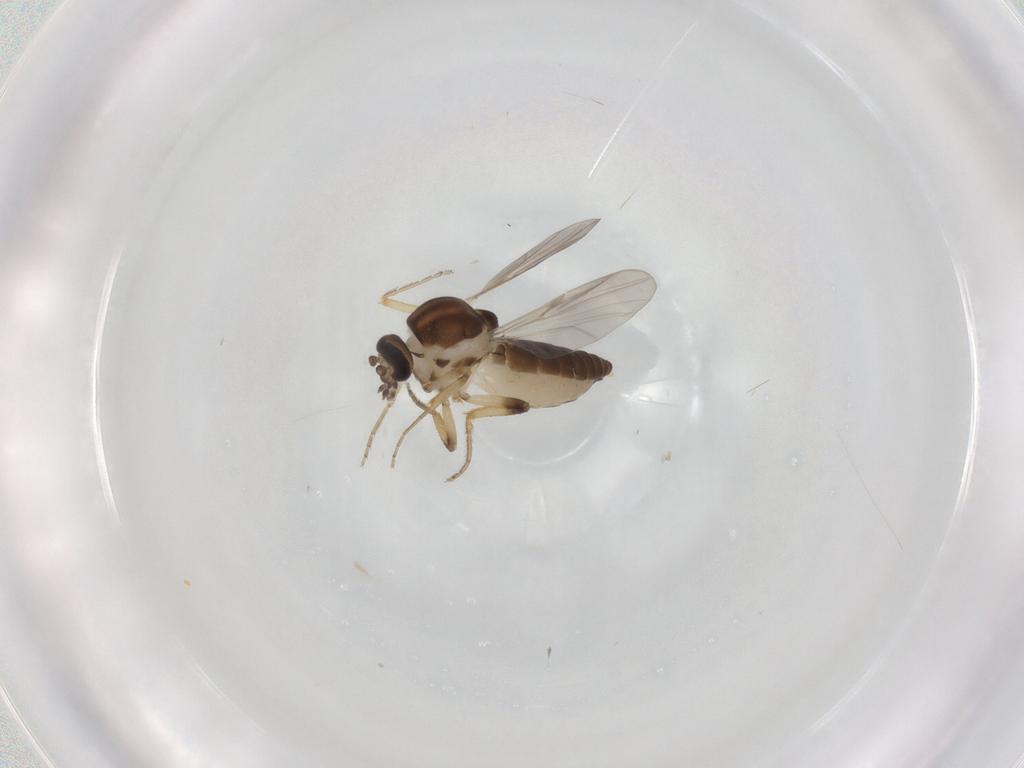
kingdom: Animalia
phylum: Arthropoda
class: Insecta
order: Diptera
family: Ceratopogonidae
